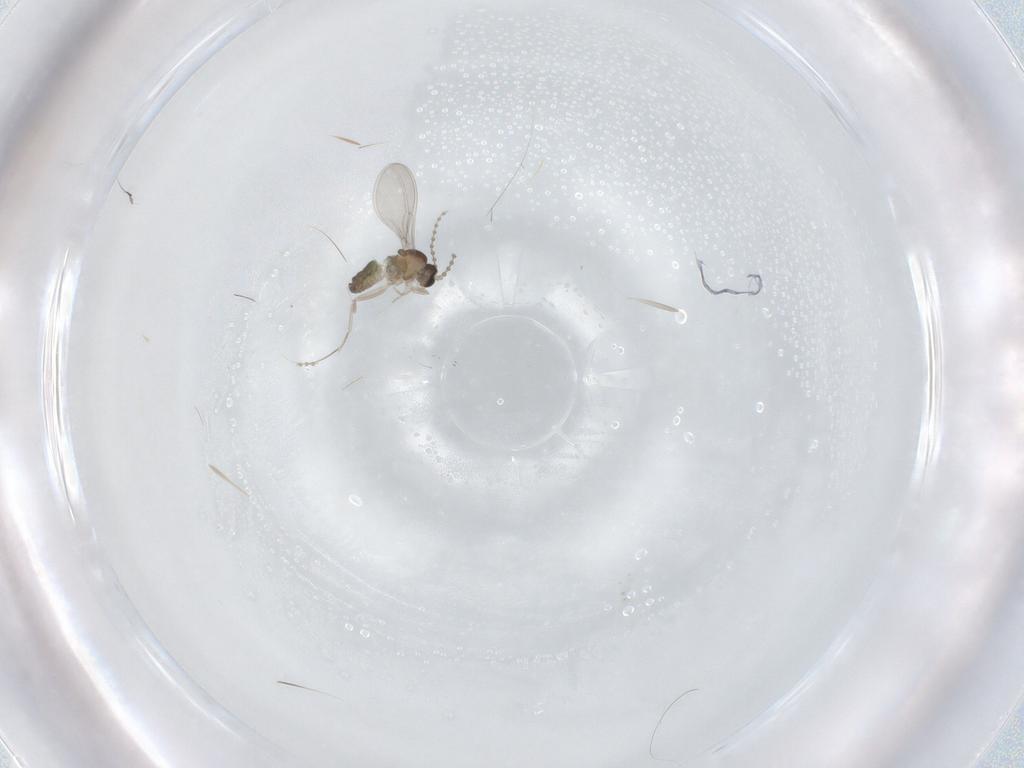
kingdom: Animalia
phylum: Arthropoda
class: Insecta
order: Diptera
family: Cecidomyiidae
